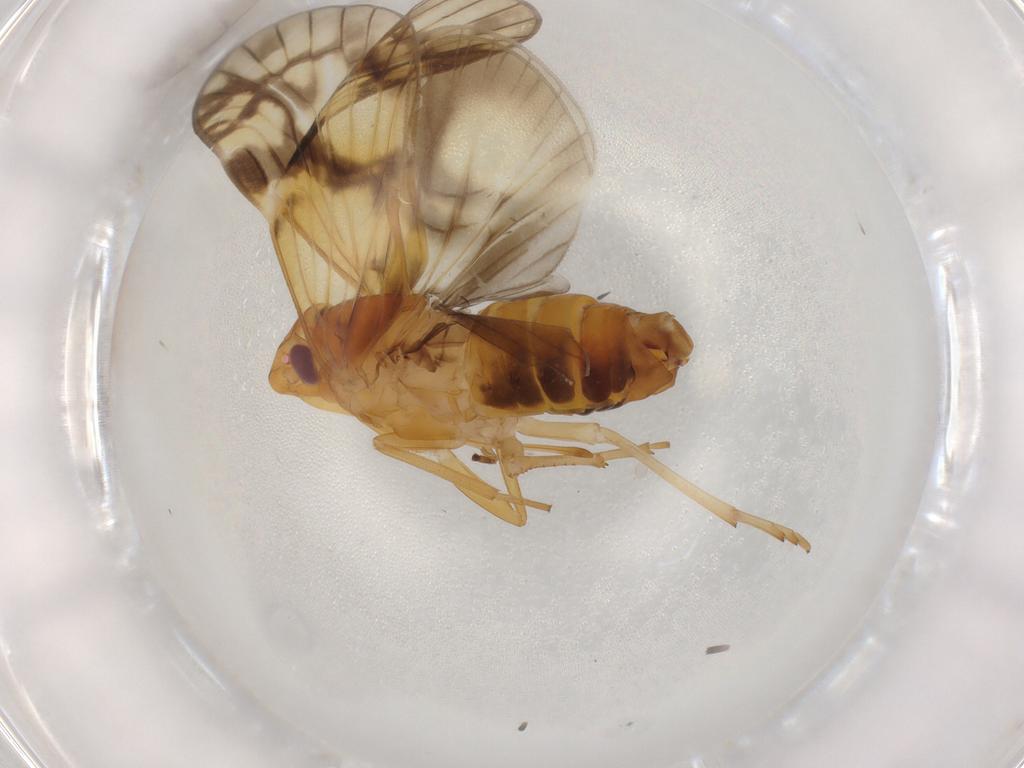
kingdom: Animalia
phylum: Arthropoda
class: Insecta
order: Hemiptera
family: Cixiidae
